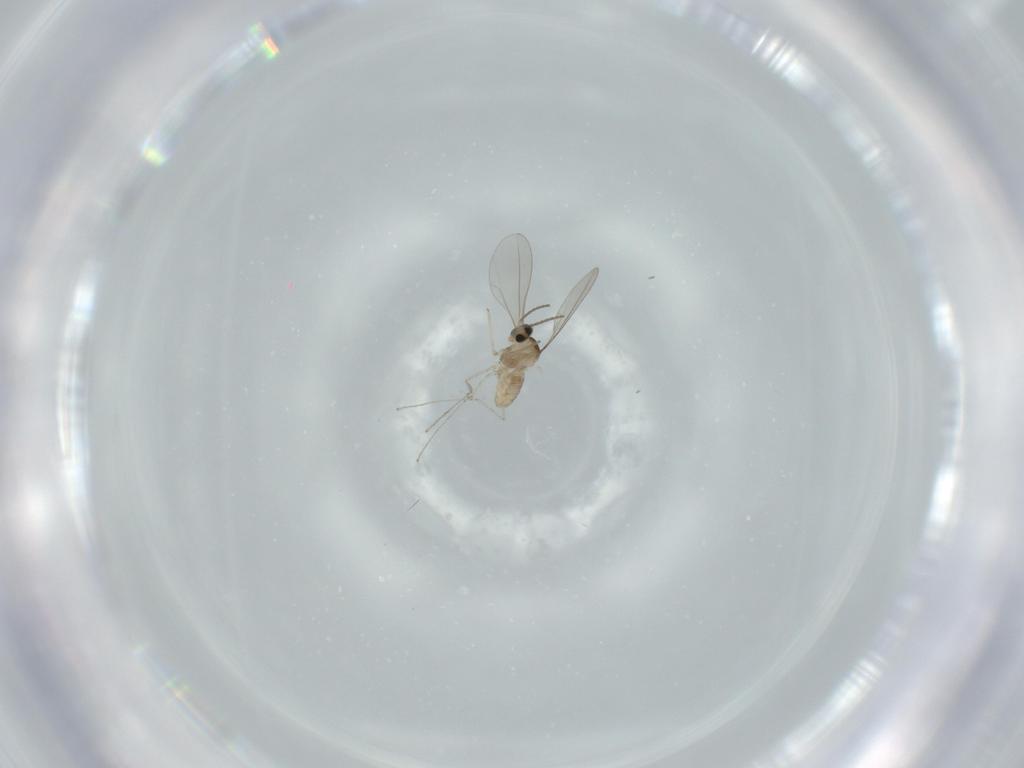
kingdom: Animalia
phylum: Arthropoda
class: Insecta
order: Diptera
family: Cecidomyiidae
